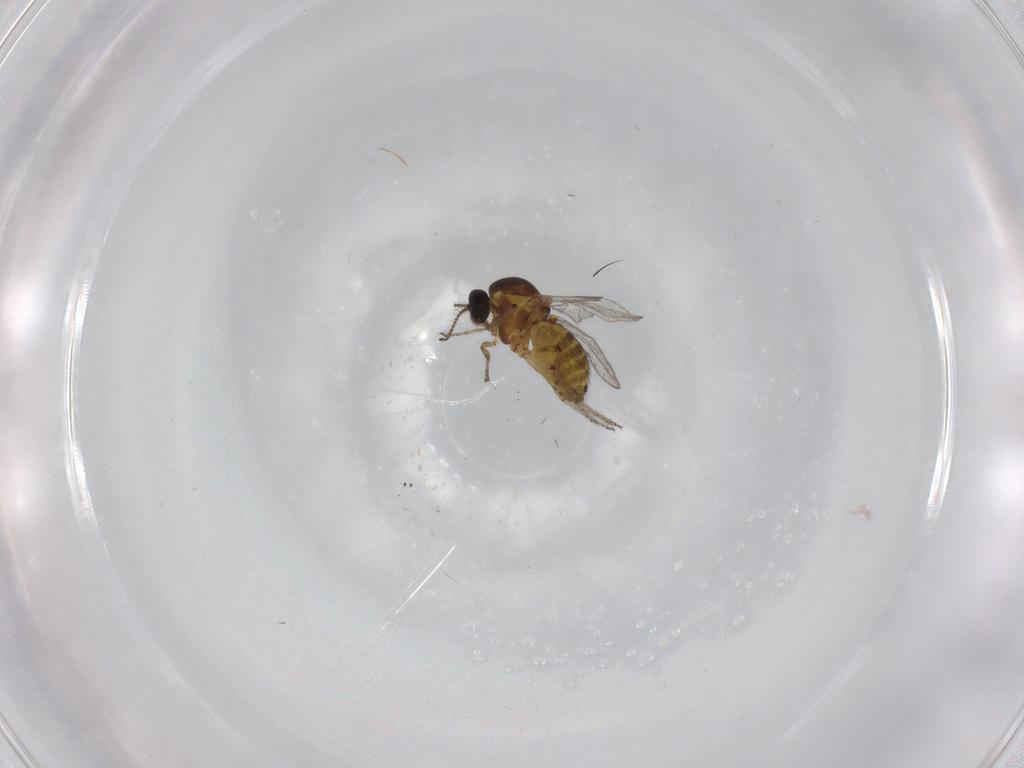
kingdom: Animalia
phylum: Arthropoda
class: Insecta
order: Diptera
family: Ceratopogonidae
